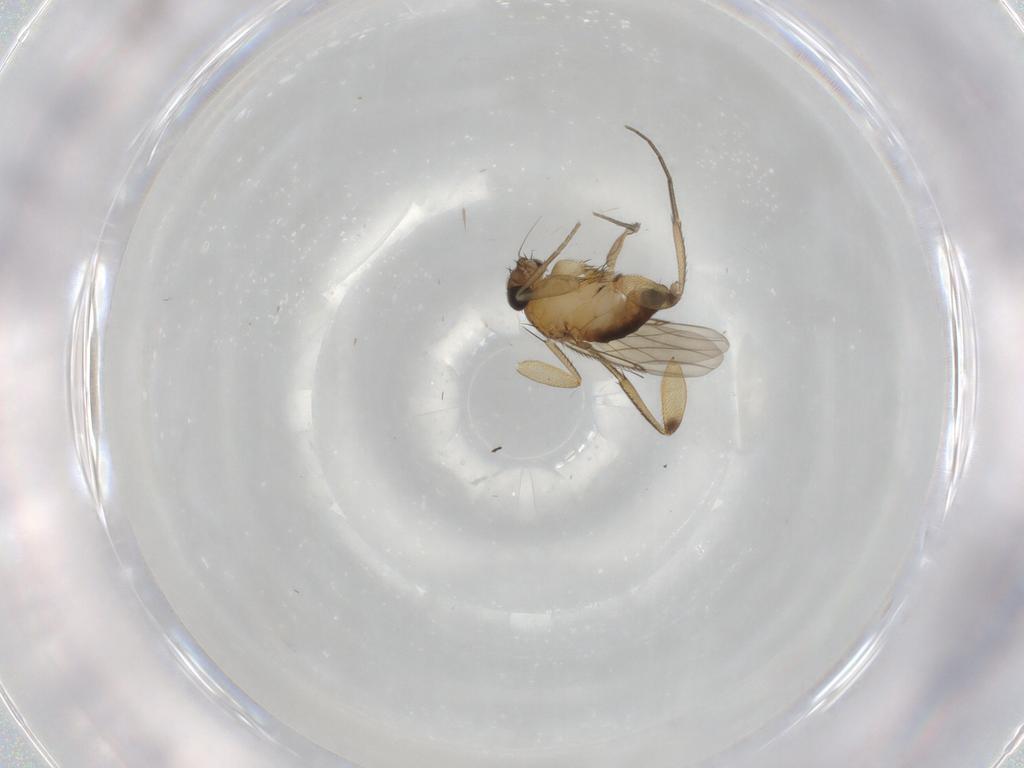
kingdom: Animalia
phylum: Arthropoda
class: Insecta
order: Diptera
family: Phoridae
